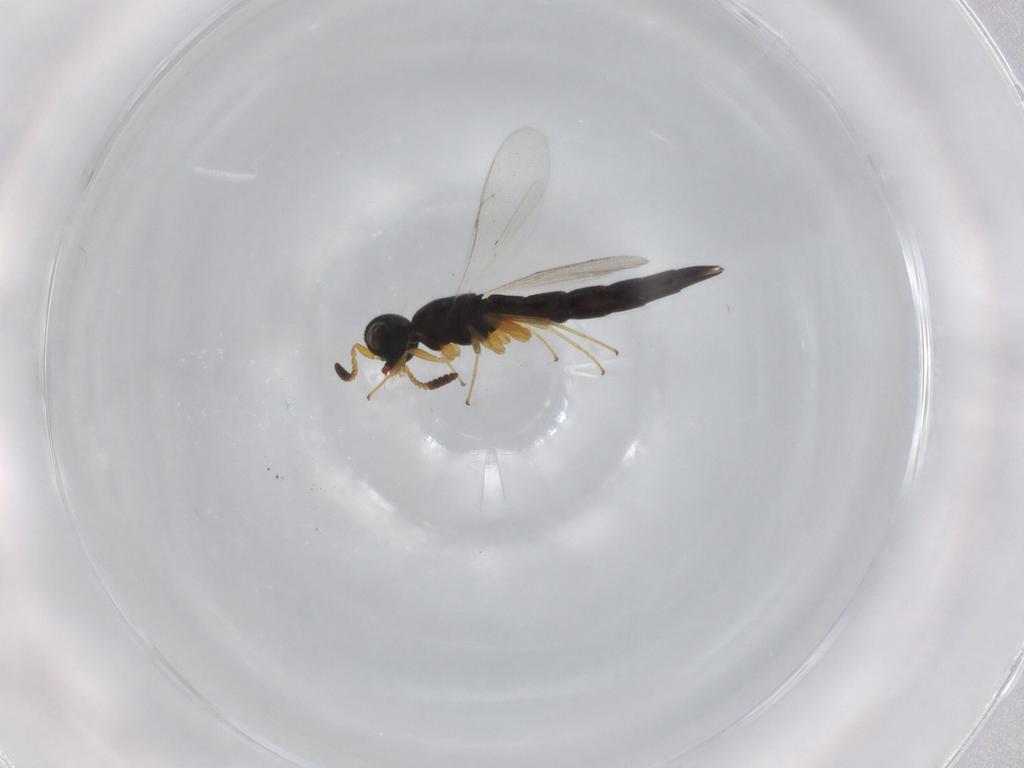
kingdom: Animalia
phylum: Arthropoda
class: Insecta
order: Hymenoptera
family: Scelionidae
